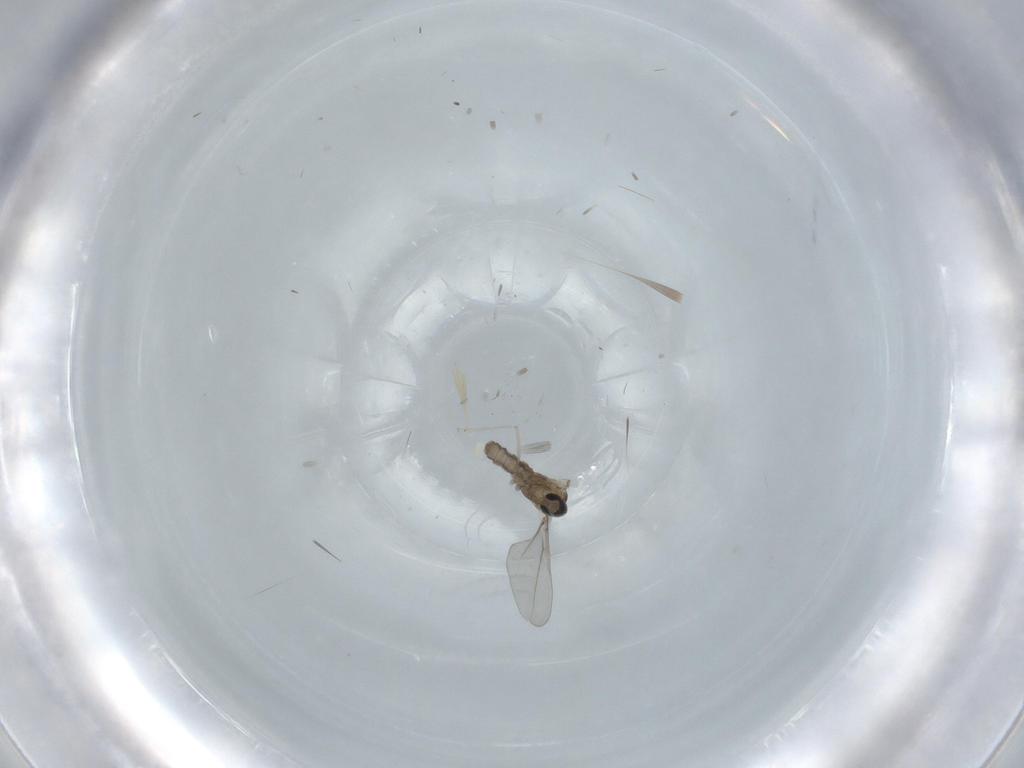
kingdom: Animalia
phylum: Arthropoda
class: Insecta
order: Diptera
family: Cecidomyiidae
